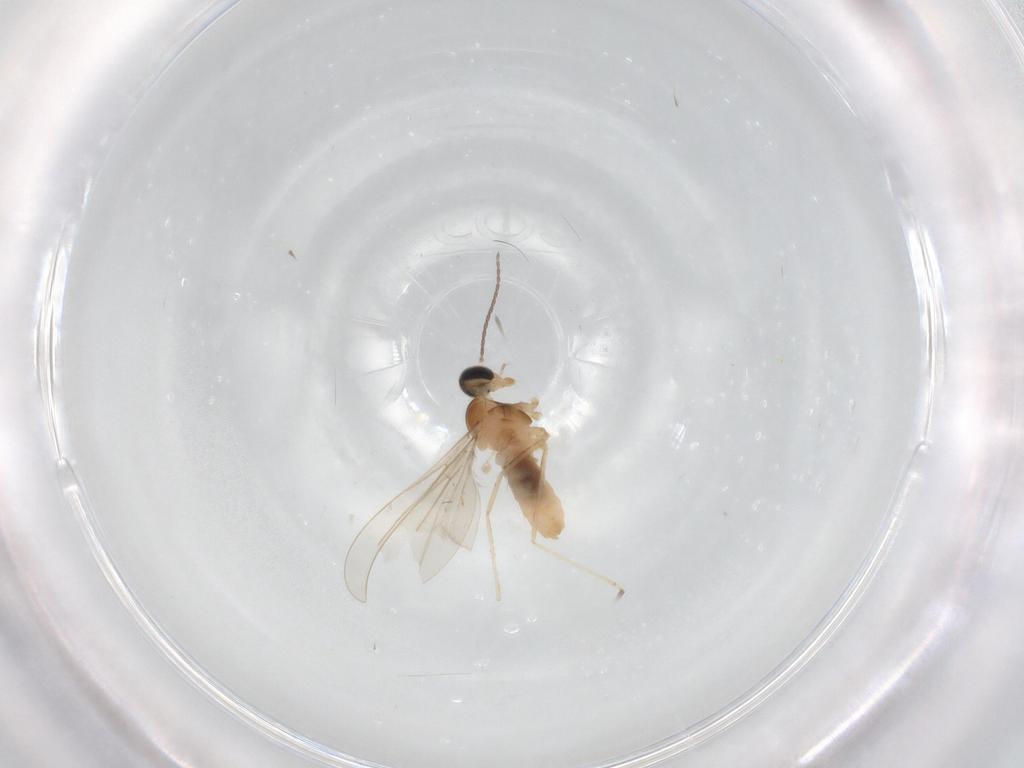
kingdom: Animalia
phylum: Arthropoda
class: Insecta
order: Diptera
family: Cecidomyiidae
